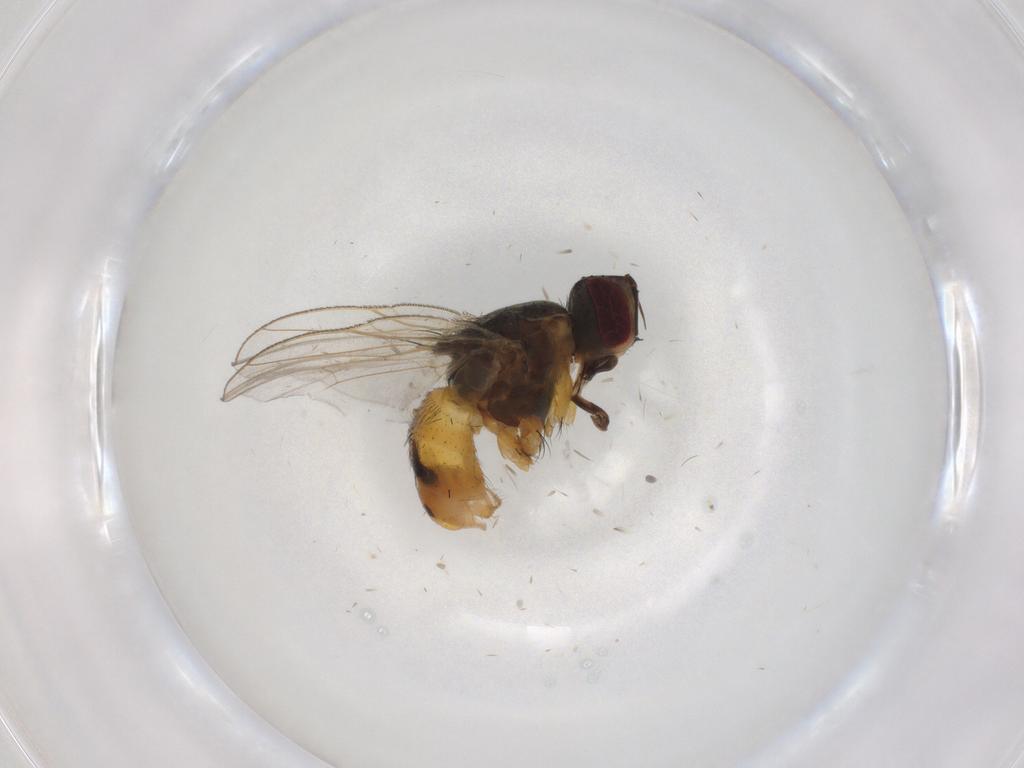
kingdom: Animalia
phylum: Arthropoda
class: Insecta
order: Diptera
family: Muscidae
